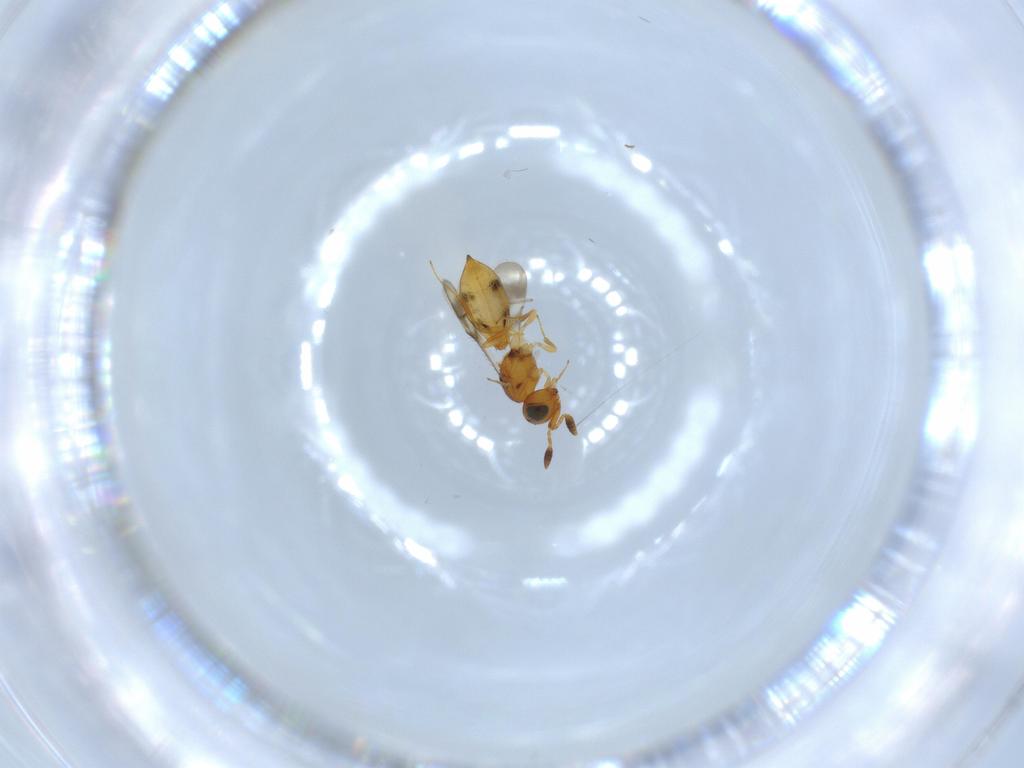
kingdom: Animalia
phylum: Arthropoda
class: Insecta
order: Hymenoptera
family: Scelionidae
